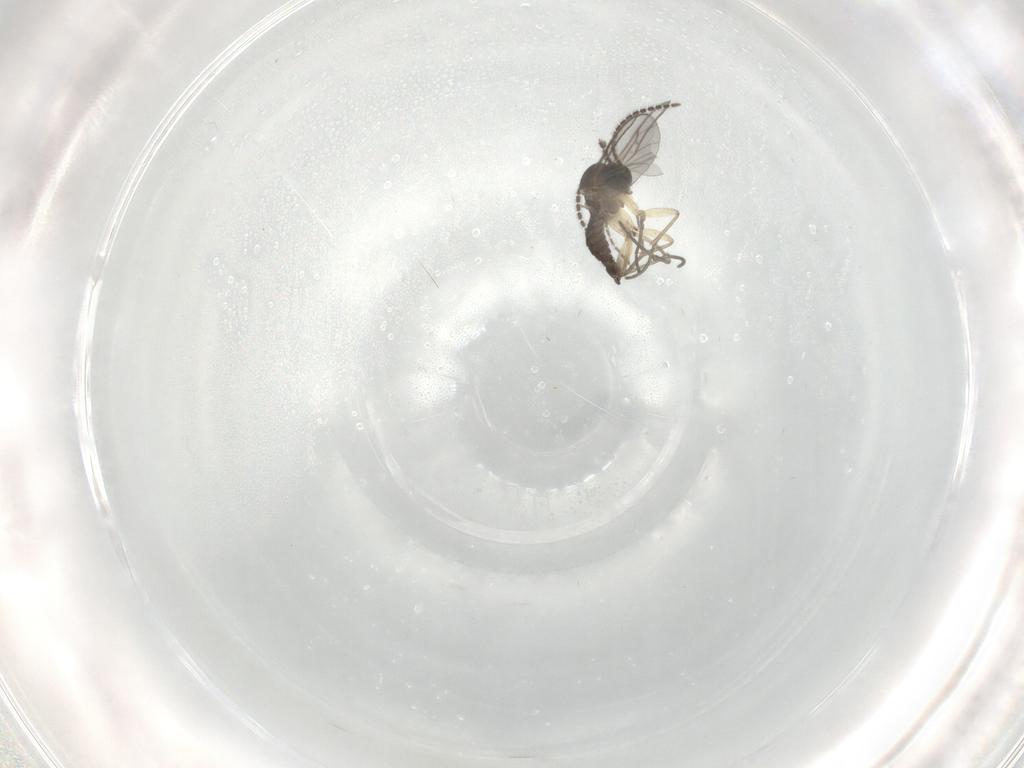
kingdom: Animalia
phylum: Arthropoda
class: Insecta
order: Diptera
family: Sciaridae
